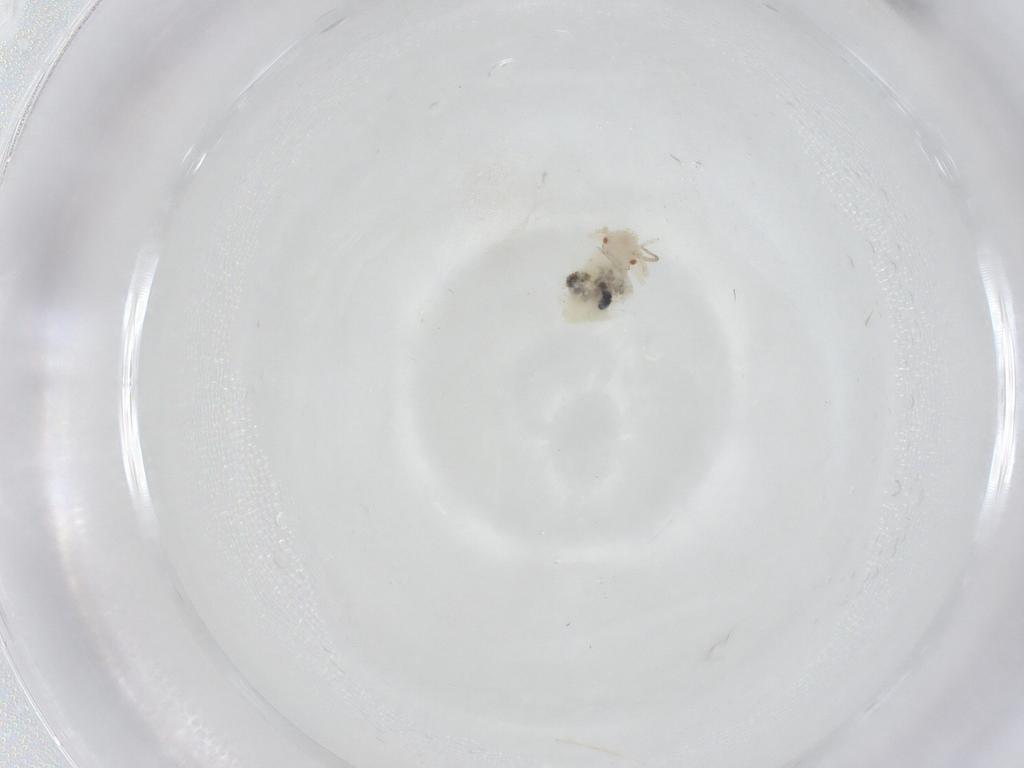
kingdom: Animalia
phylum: Arthropoda
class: Insecta
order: Psocodea
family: Caeciliusidae
